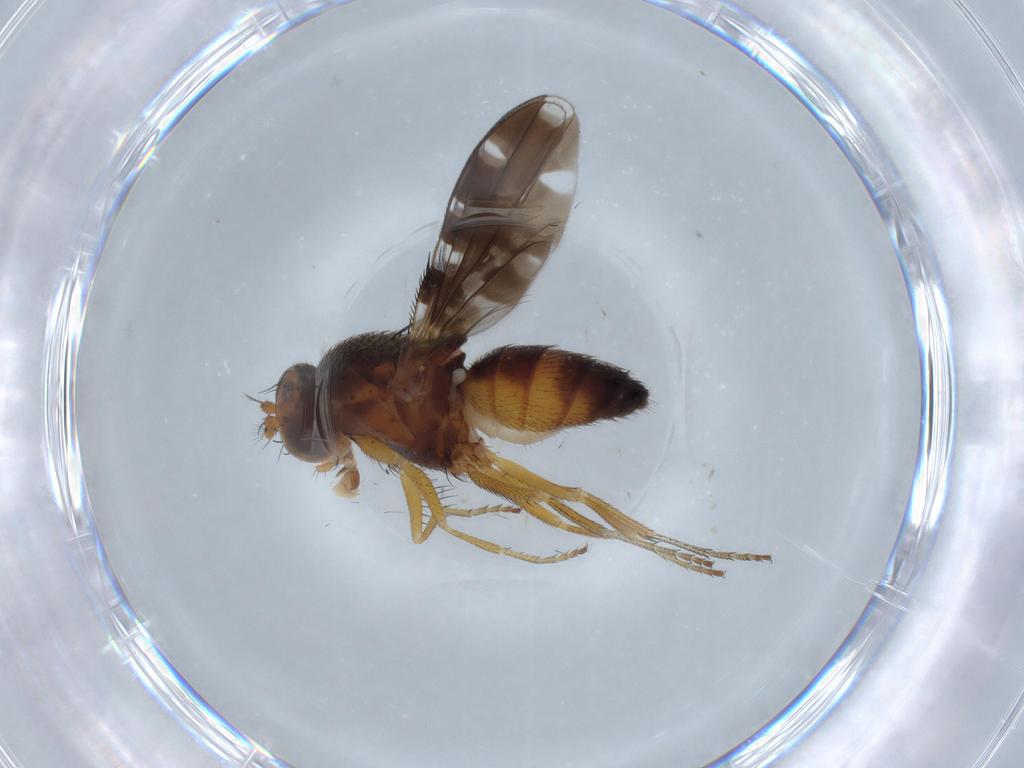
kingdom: Animalia
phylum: Arthropoda
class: Insecta
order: Diptera
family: Ephydridae
